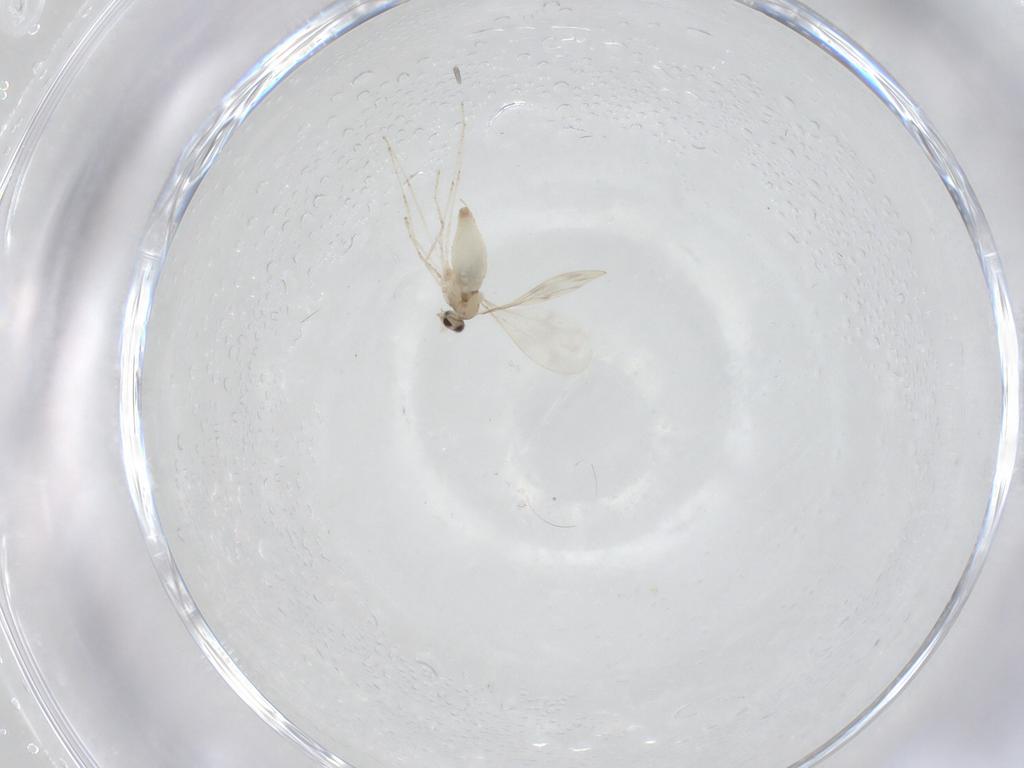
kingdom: Animalia
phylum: Arthropoda
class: Insecta
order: Diptera
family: Cecidomyiidae
